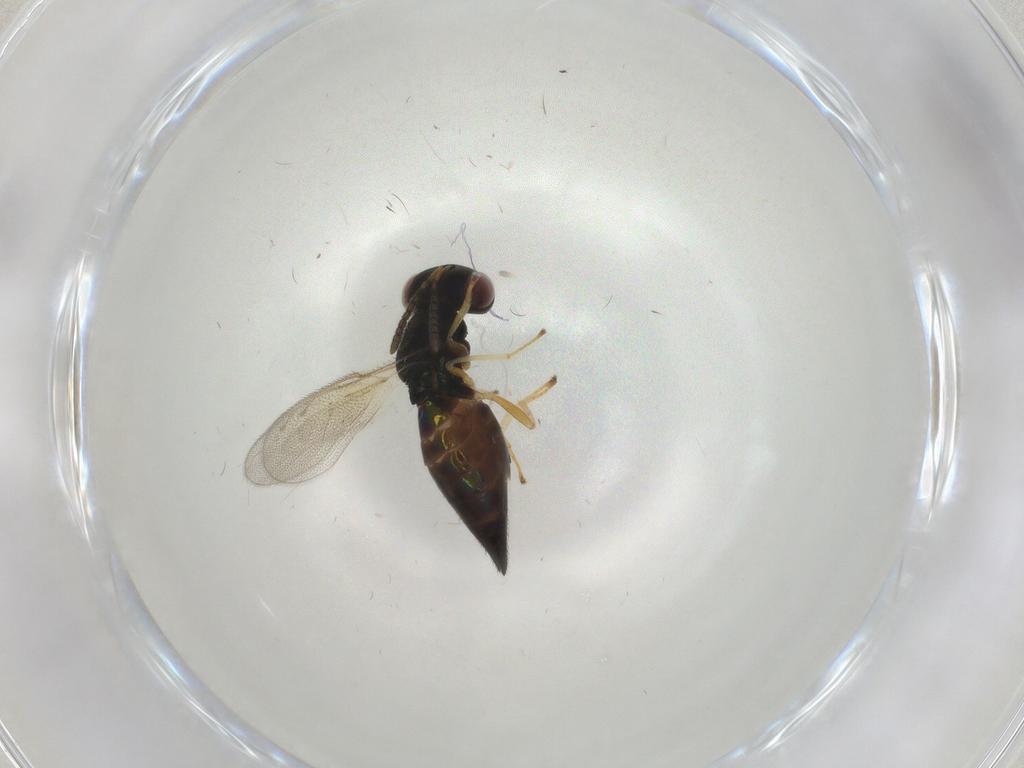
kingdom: Animalia
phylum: Arthropoda
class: Insecta
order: Hymenoptera
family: Pteromalidae
